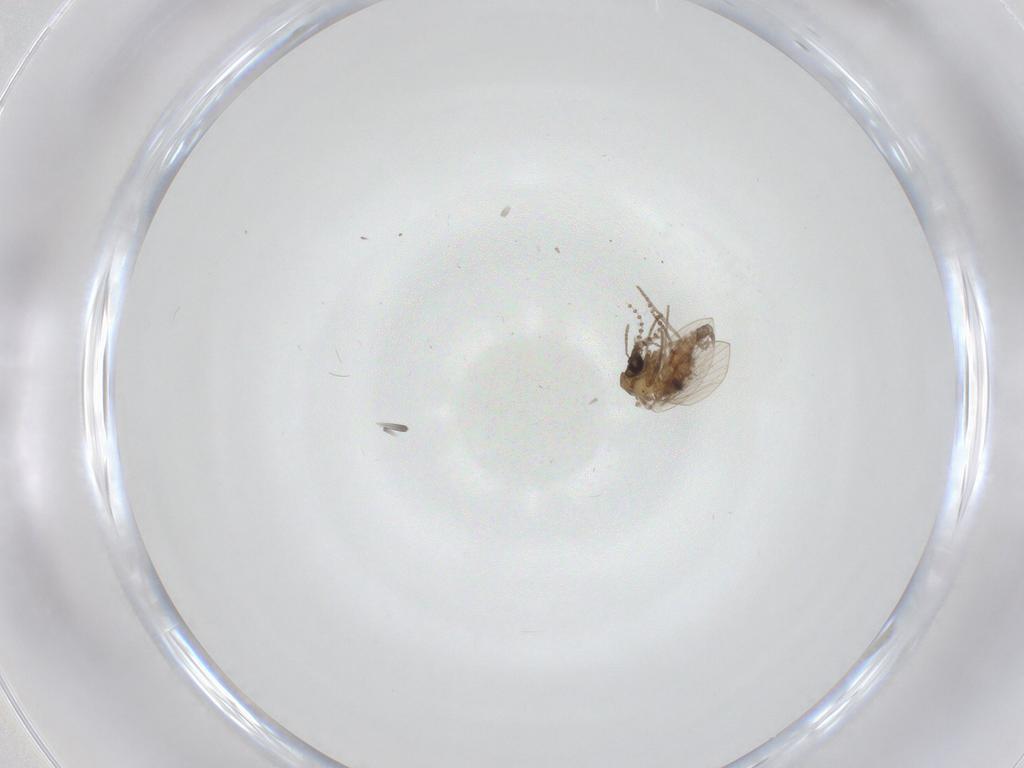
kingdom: Animalia
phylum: Arthropoda
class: Insecta
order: Diptera
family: Psychodidae
